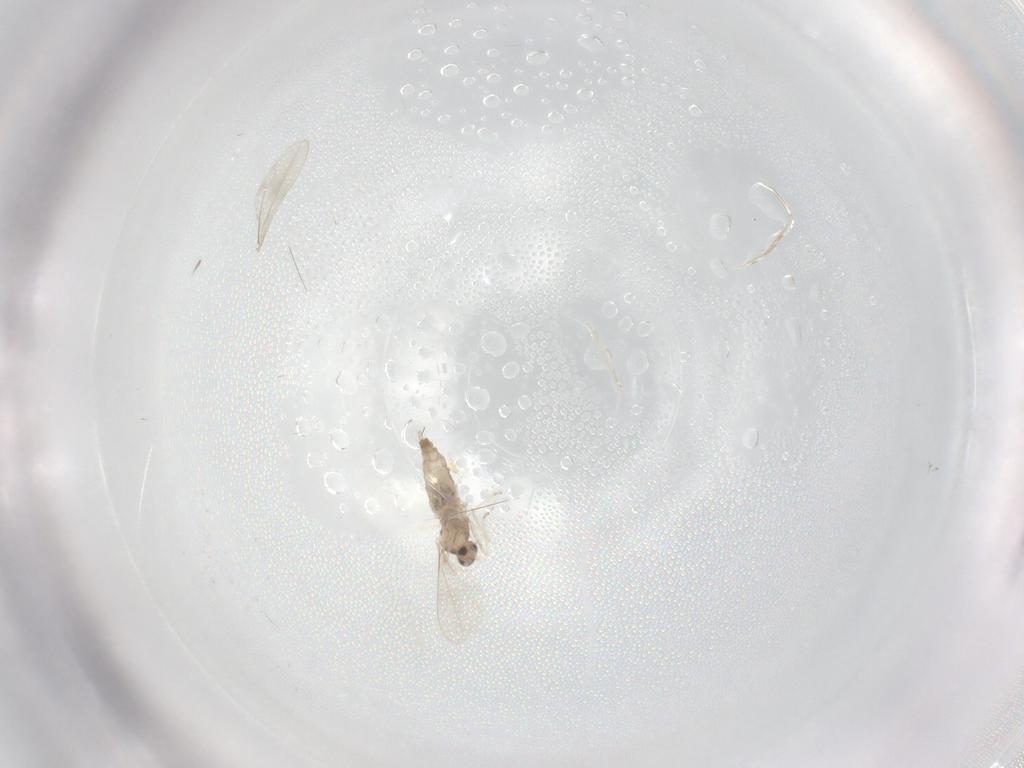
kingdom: Animalia
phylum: Arthropoda
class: Insecta
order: Diptera
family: Cecidomyiidae
